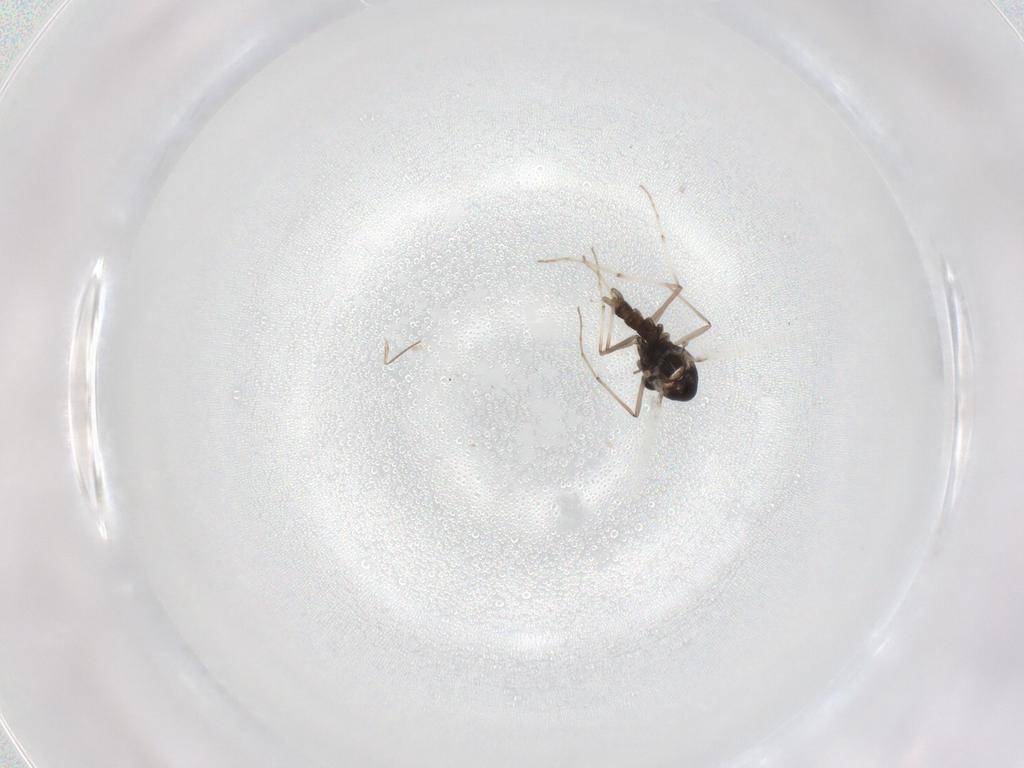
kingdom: Animalia
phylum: Arthropoda
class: Insecta
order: Diptera
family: Chironomidae
